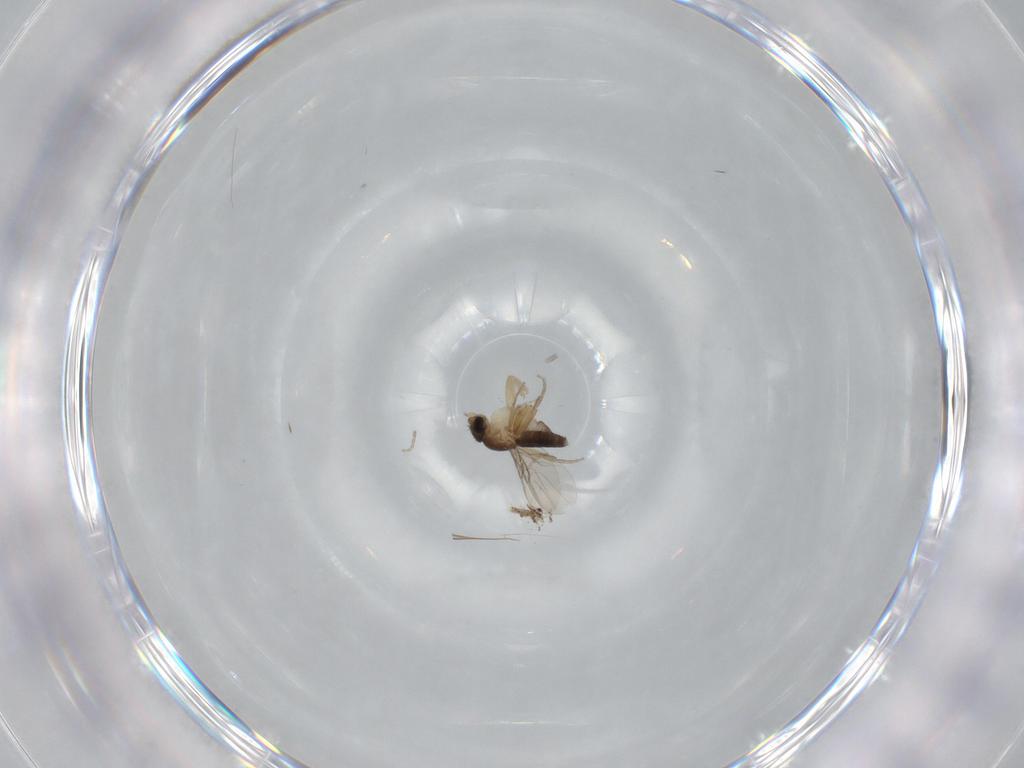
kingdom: Animalia
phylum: Arthropoda
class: Insecta
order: Diptera
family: Phoridae
